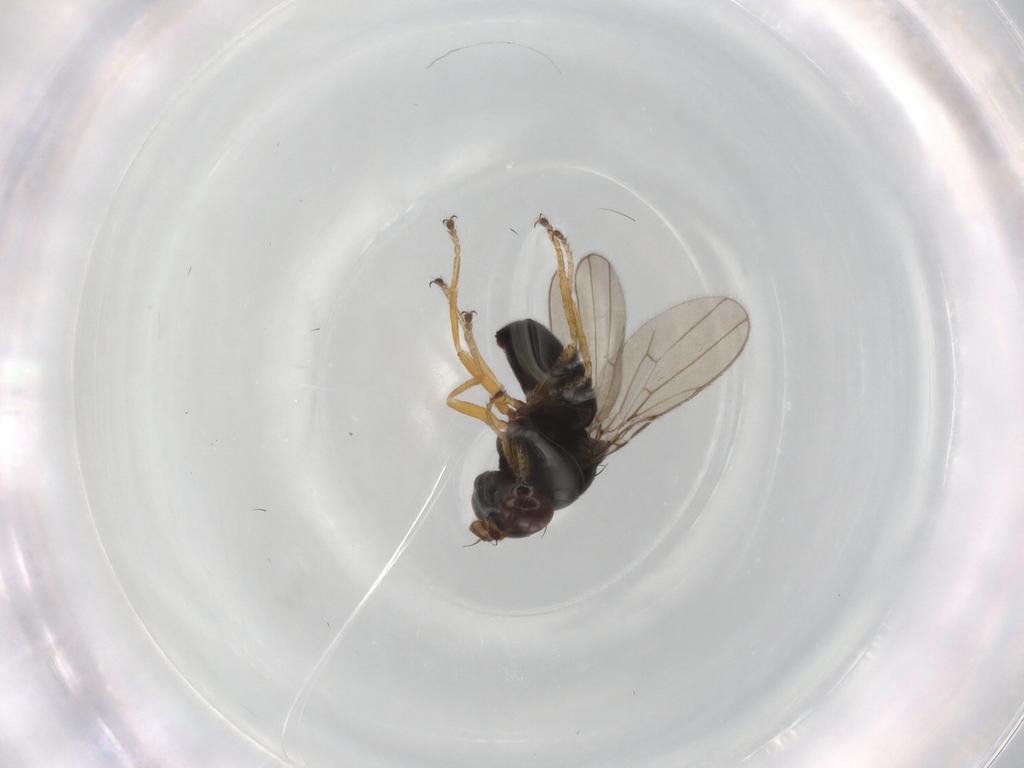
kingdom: Animalia
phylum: Arthropoda
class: Insecta
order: Diptera
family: Ephydridae
